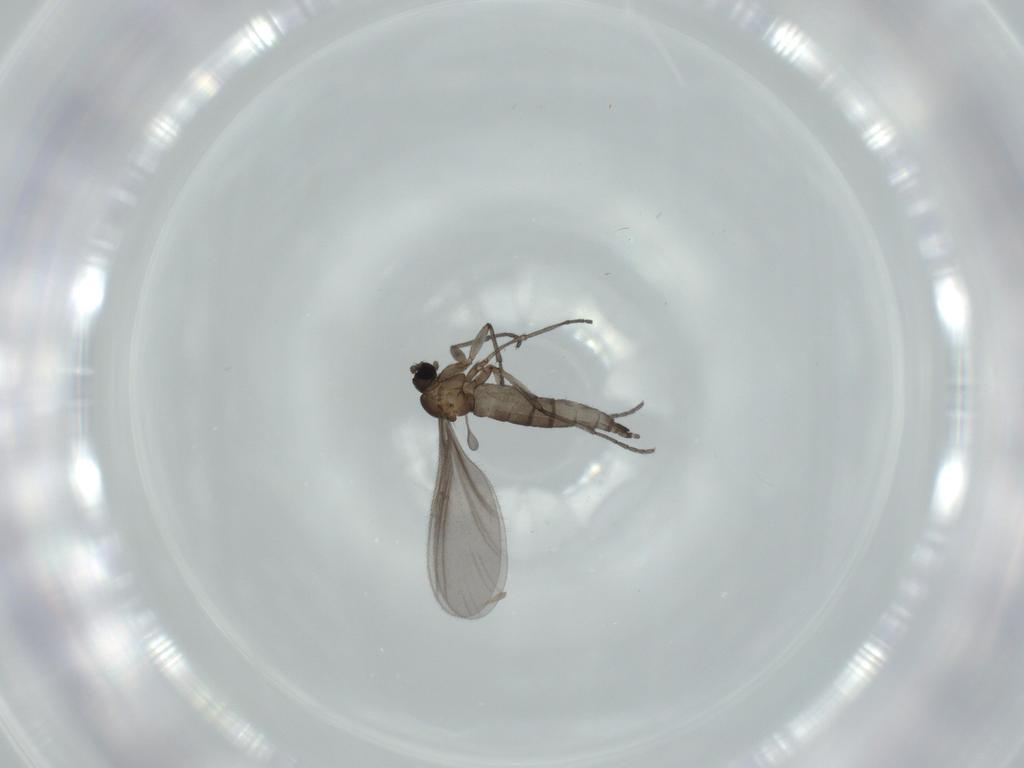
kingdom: Animalia
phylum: Arthropoda
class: Insecta
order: Diptera
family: Sciaridae
